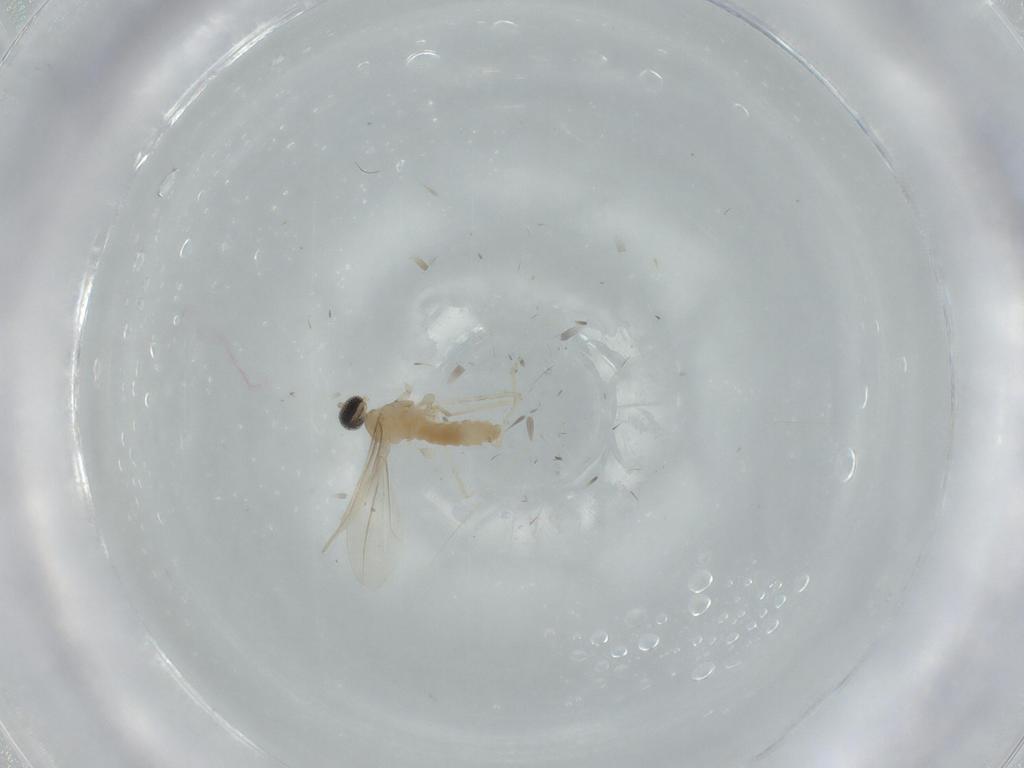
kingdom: Animalia
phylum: Arthropoda
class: Insecta
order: Diptera
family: Cecidomyiidae
